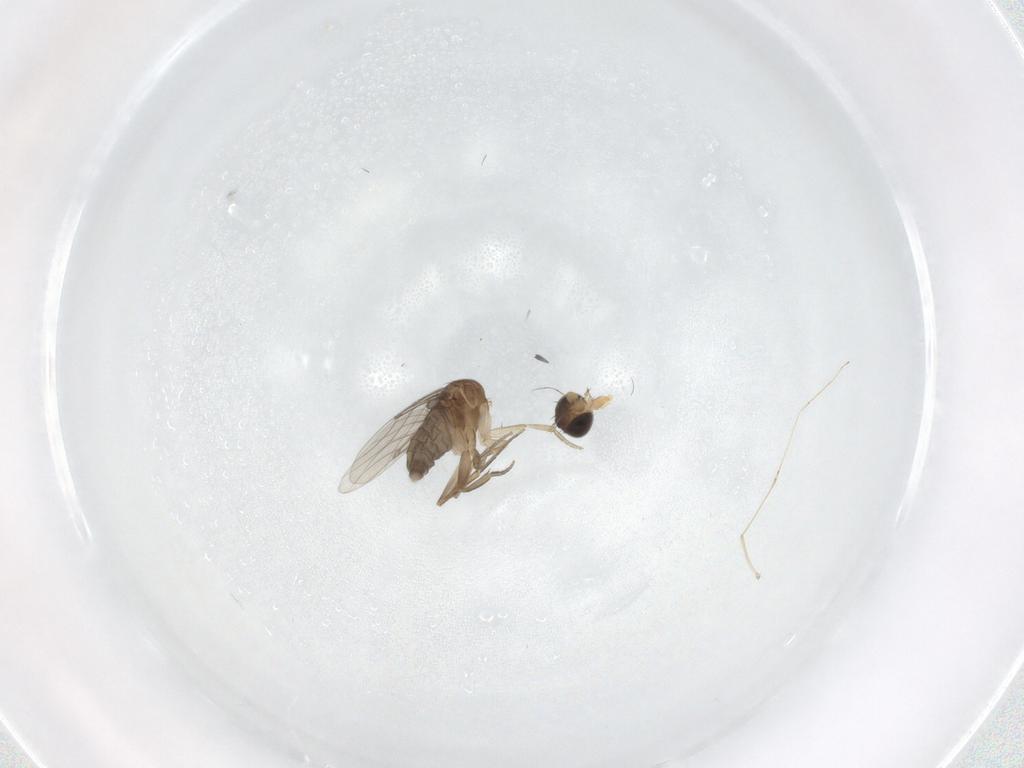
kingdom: Animalia
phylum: Arthropoda
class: Insecta
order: Diptera
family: Phoridae
